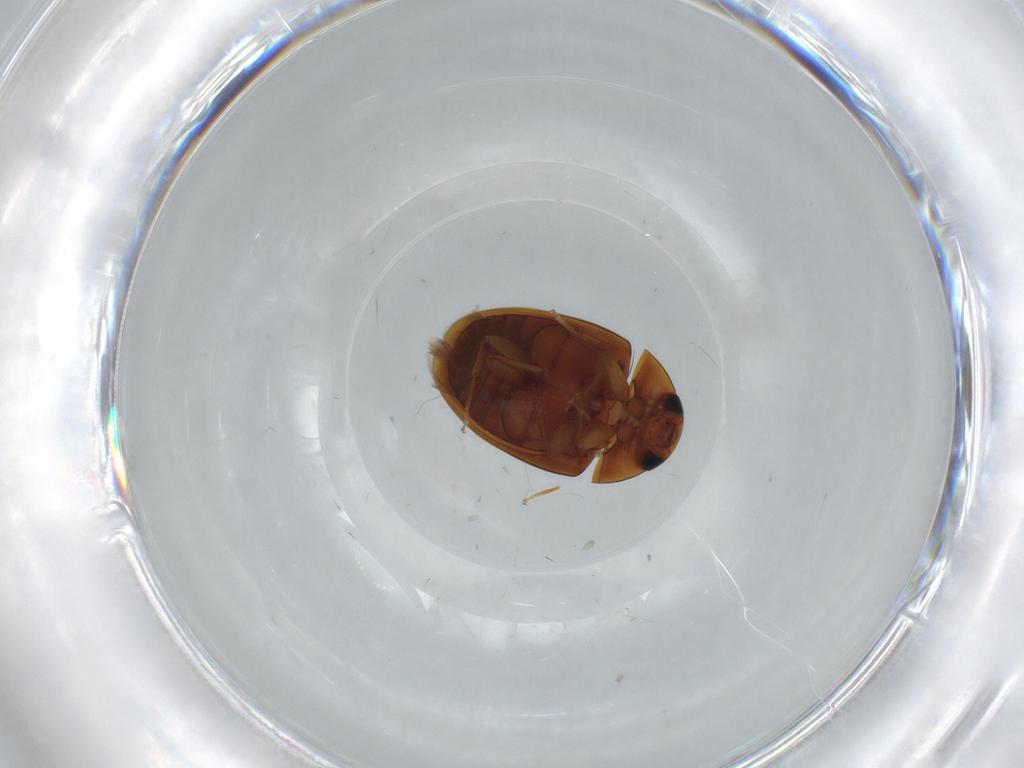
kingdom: Animalia
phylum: Arthropoda
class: Insecta
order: Coleoptera
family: Phalacridae
